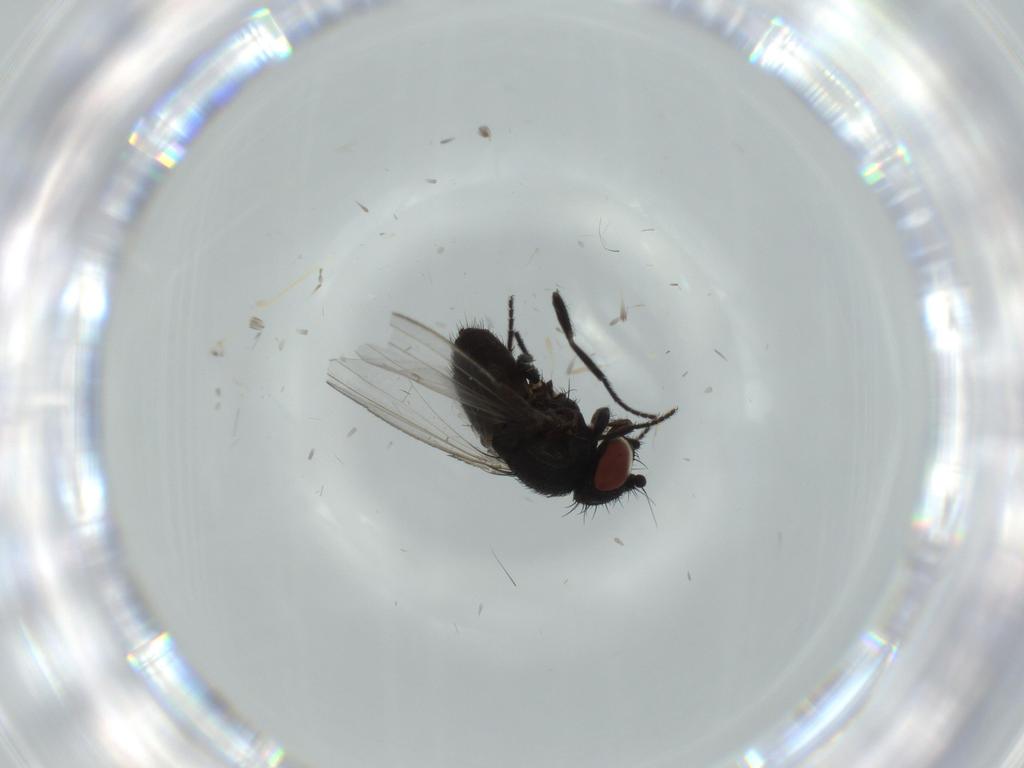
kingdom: Animalia
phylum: Arthropoda
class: Insecta
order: Diptera
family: Milichiidae
